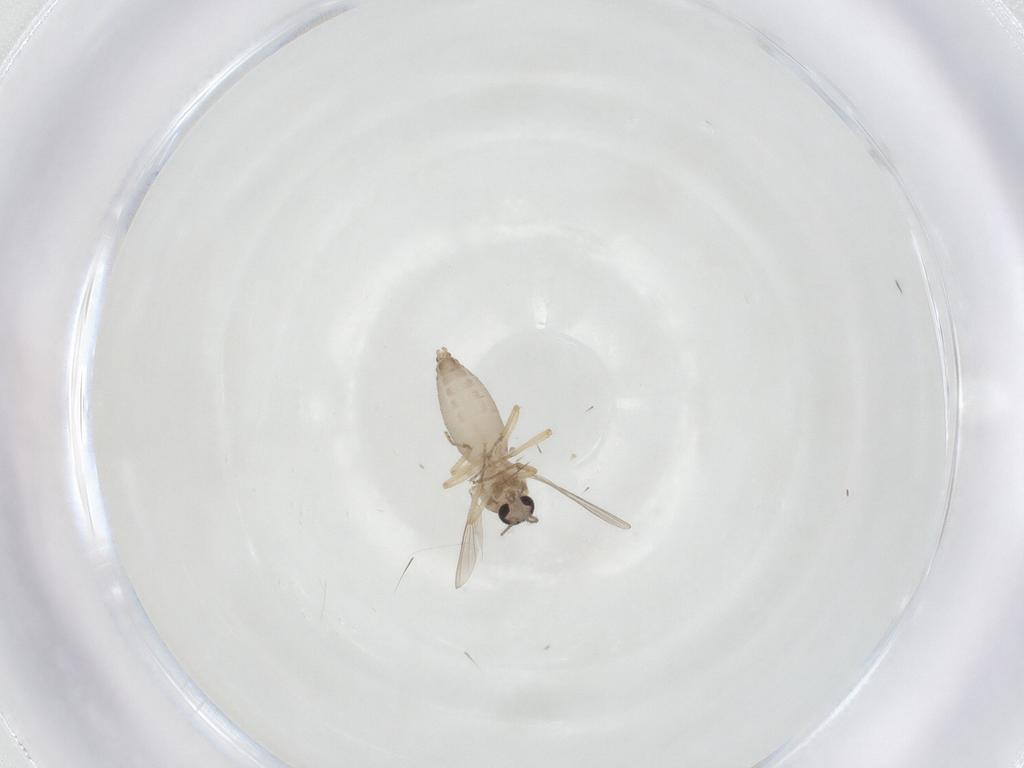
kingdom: Animalia
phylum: Arthropoda
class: Insecta
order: Diptera
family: Ceratopogonidae
